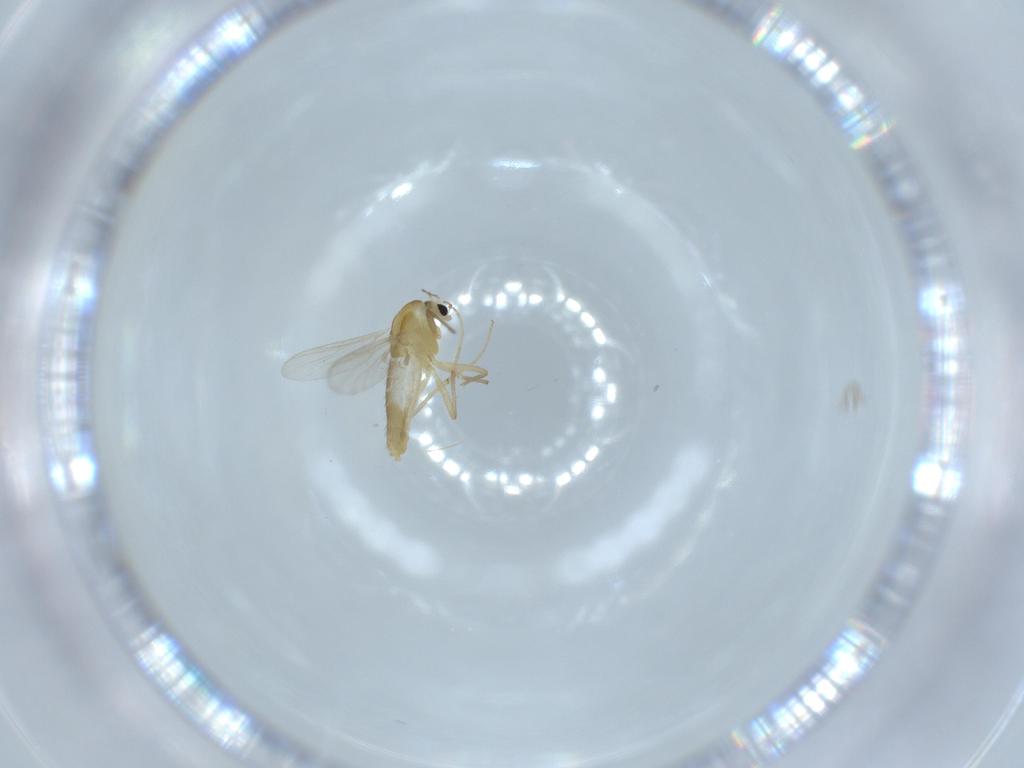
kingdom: Animalia
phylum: Arthropoda
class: Insecta
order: Diptera
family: Chironomidae
